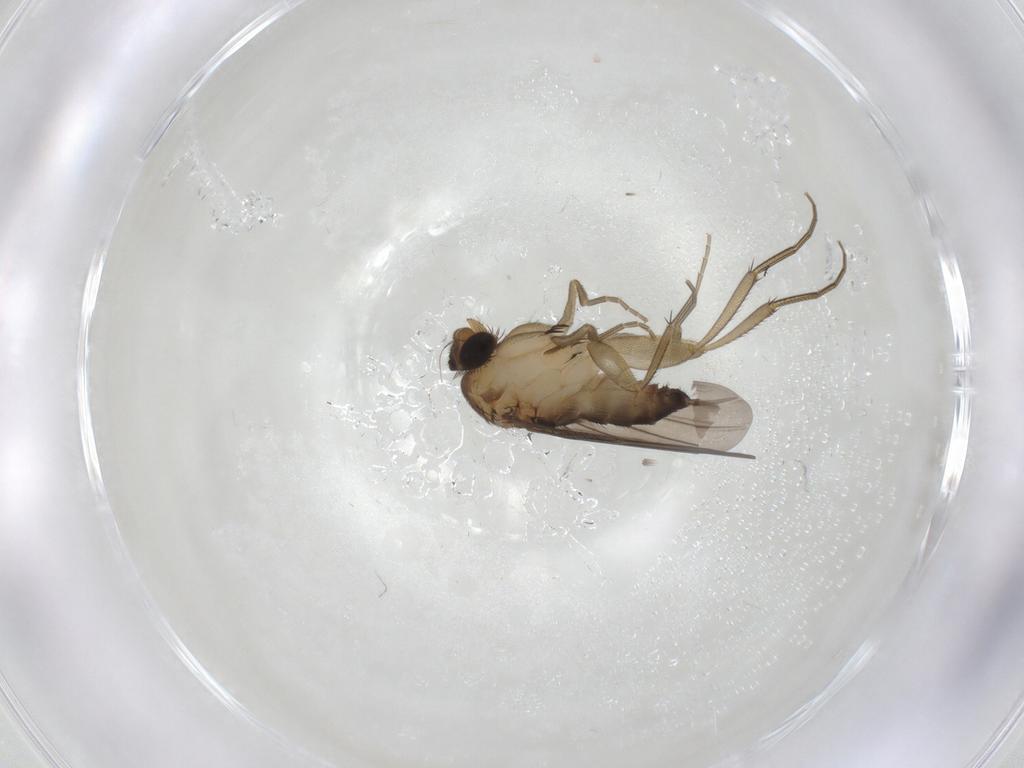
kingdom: Animalia
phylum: Arthropoda
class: Insecta
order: Diptera
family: Phoridae
